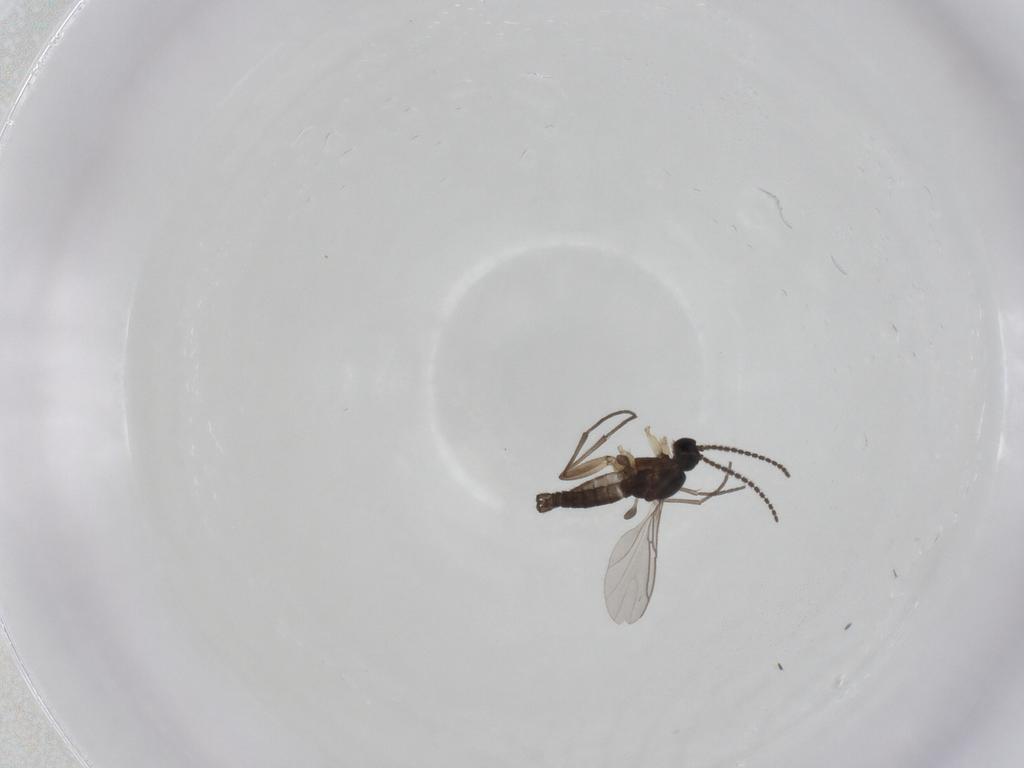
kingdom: Animalia
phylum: Arthropoda
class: Insecta
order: Diptera
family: Sciaridae
